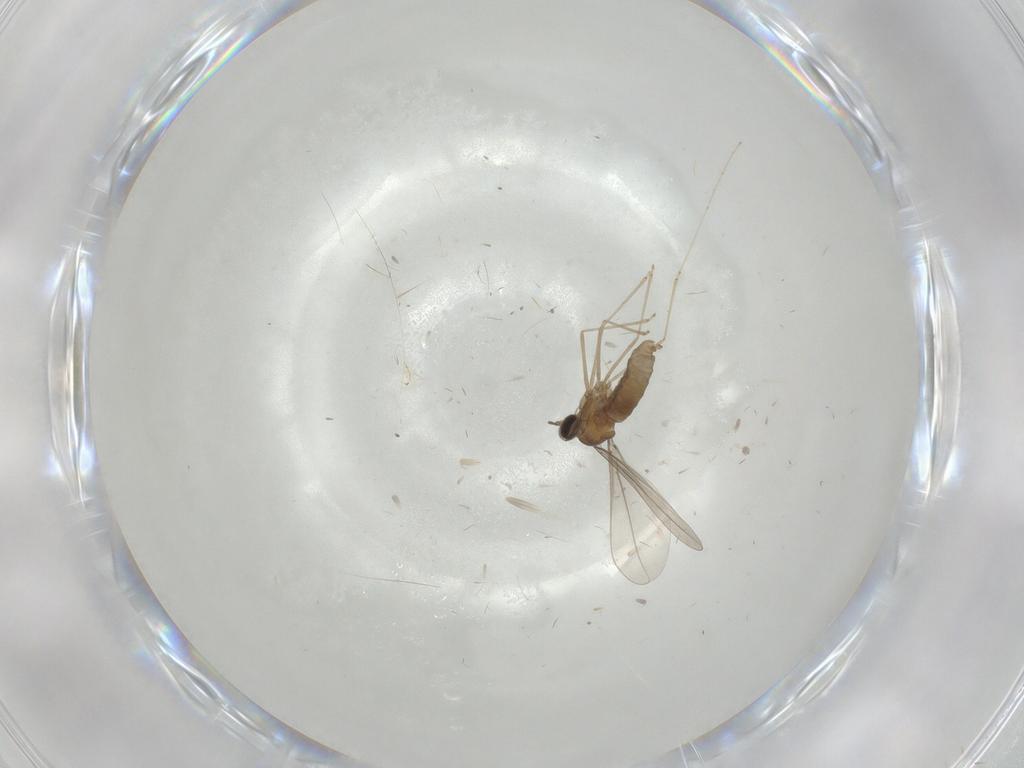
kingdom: Animalia
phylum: Arthropoda
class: Insecta
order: Diptera
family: Cecidomyiidae
